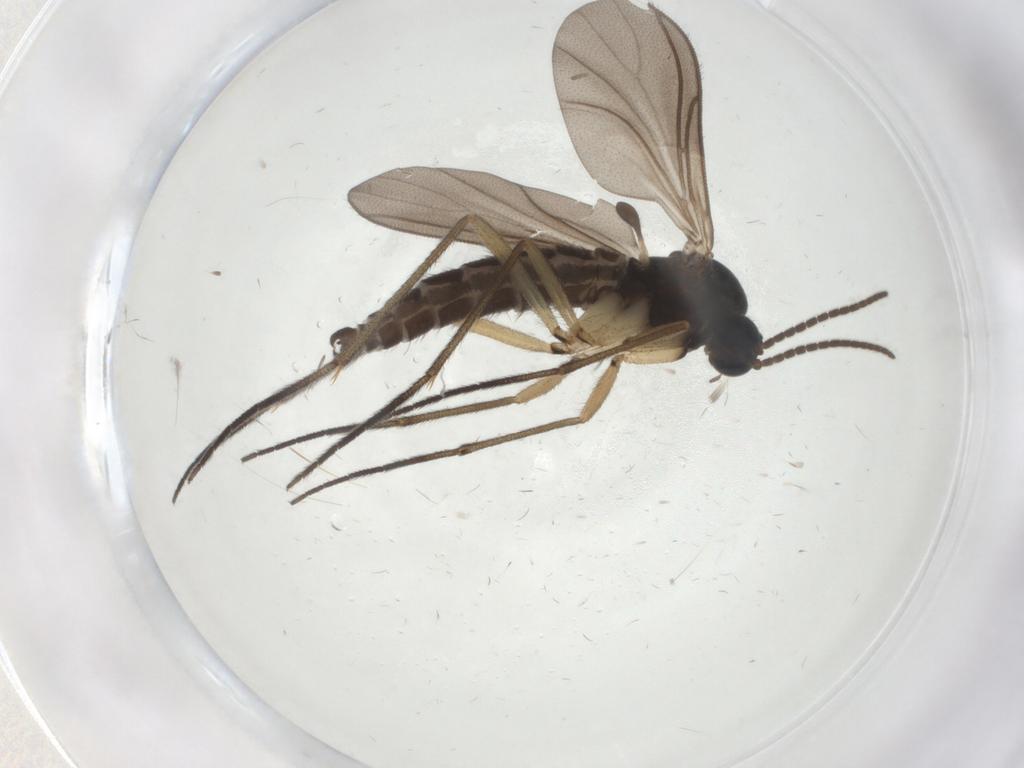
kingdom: Animalia
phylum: Arthropoda
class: Insecta
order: Diptera
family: Sciaridae
